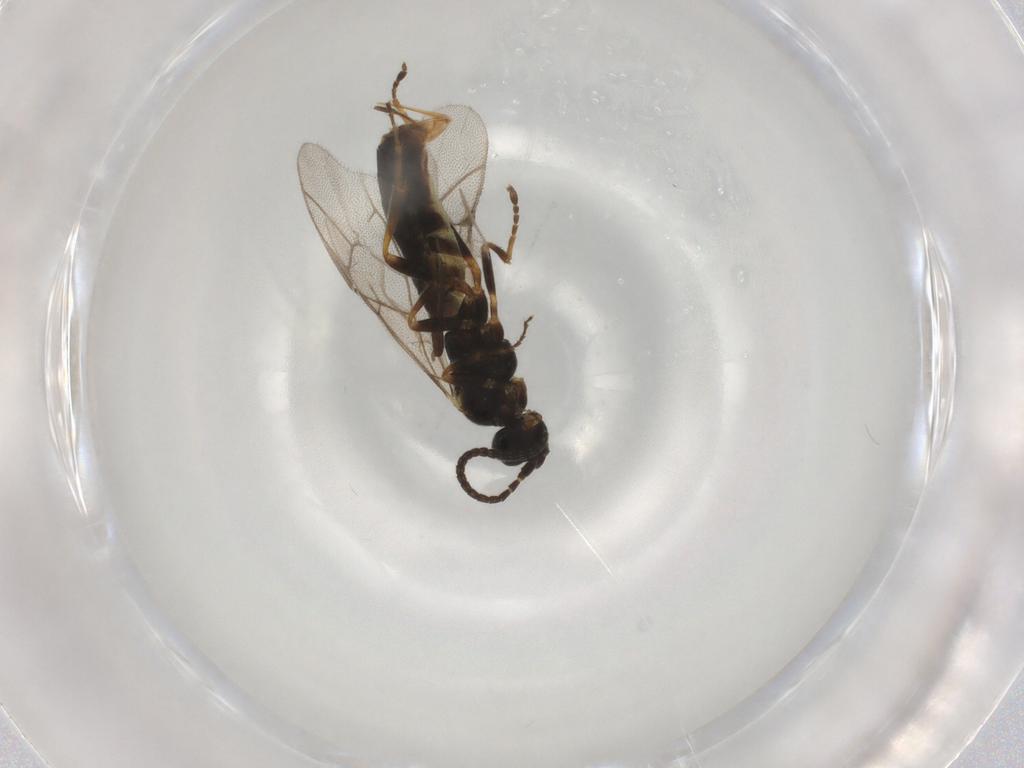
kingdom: Animalia
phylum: Arthropoda
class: Insecta
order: Hymenoptera
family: Ichneumonidae
